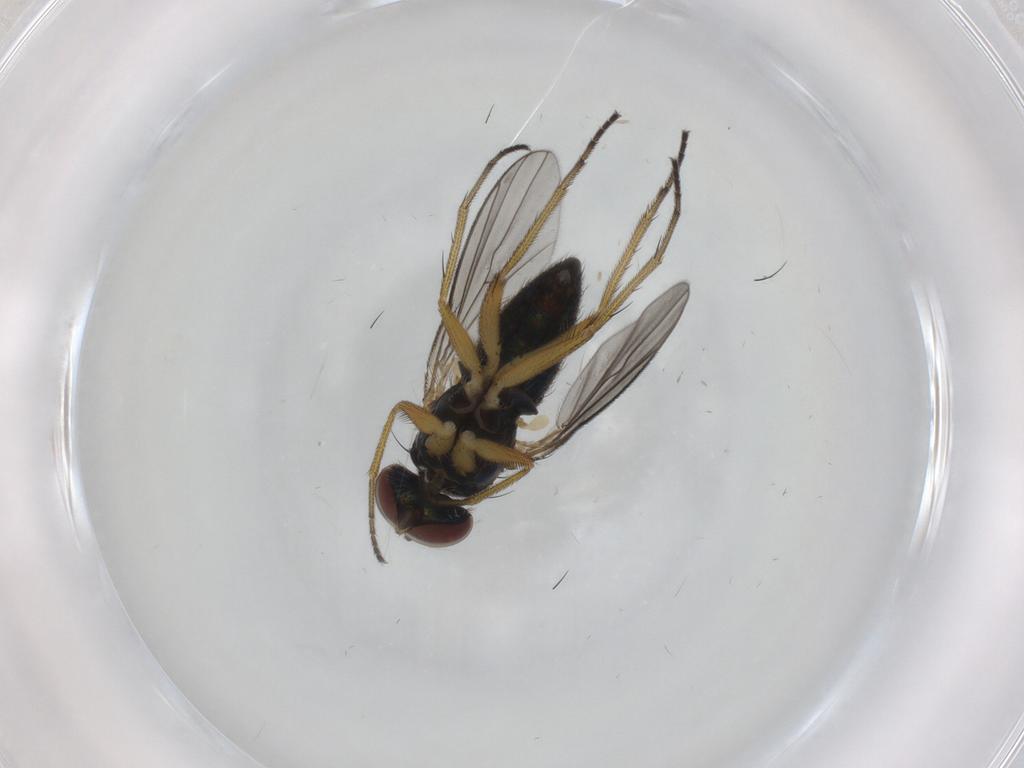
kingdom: Animalia
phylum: Arthropoda
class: Insecta
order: Diptera
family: Dolichopodidae
